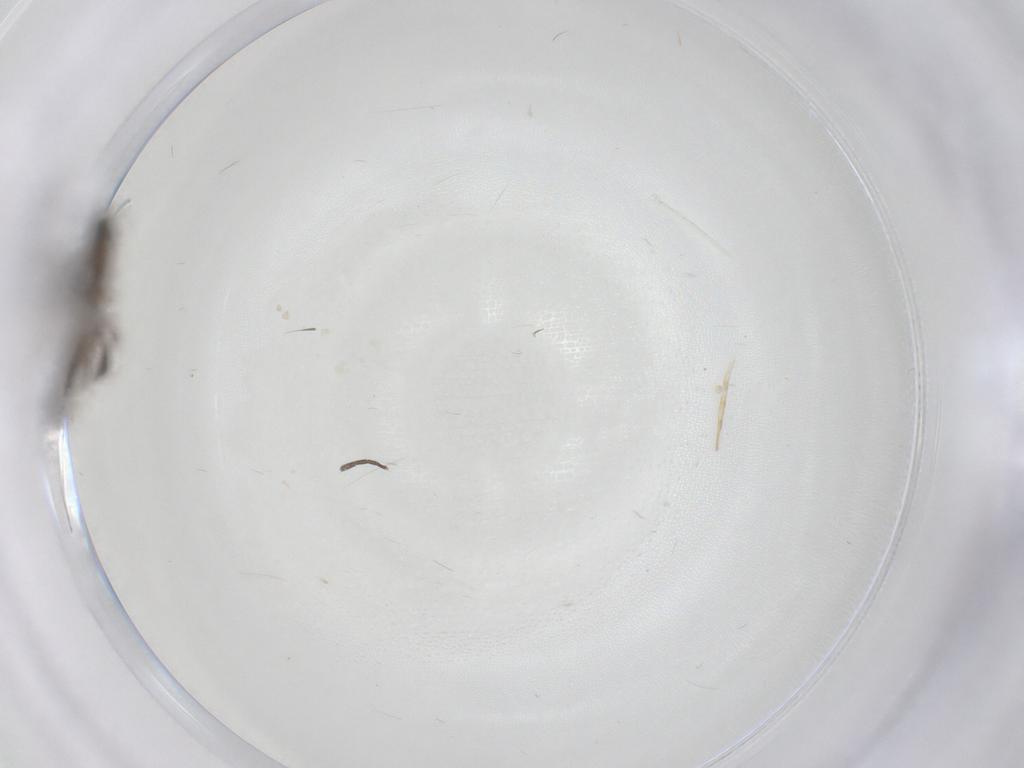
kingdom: Animalia
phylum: Arthropoda
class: Insecta
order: Diptera
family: Sciaridae
